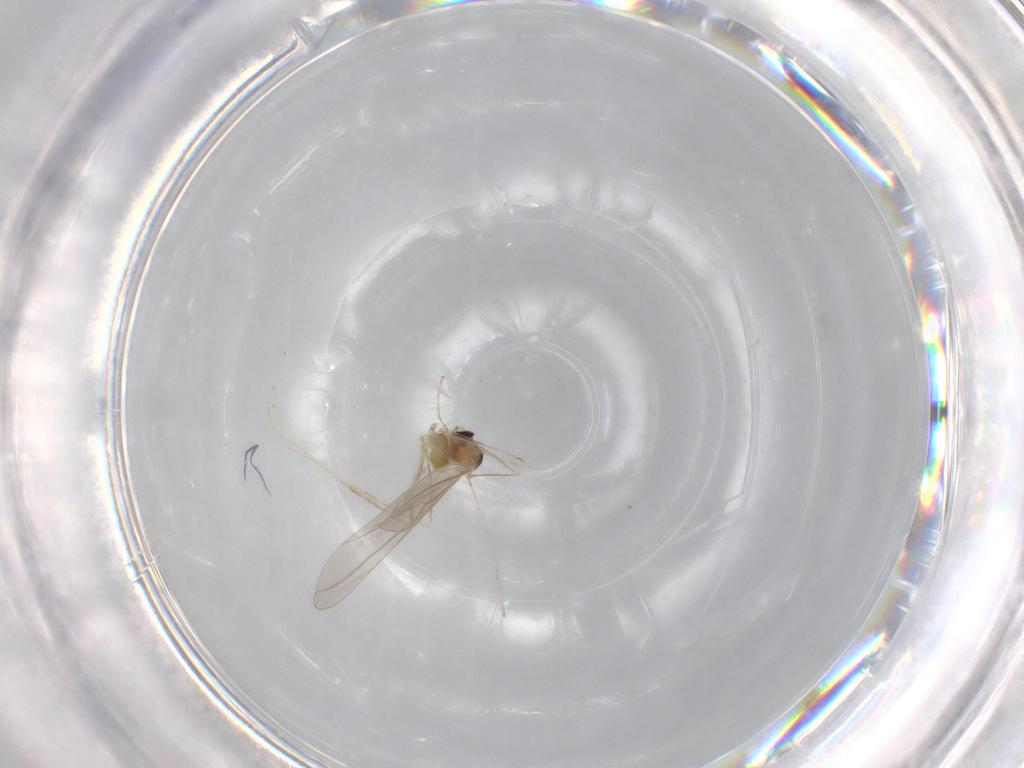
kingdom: Animalia
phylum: Arthropoda
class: Insecta
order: Diptera
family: Cecidomyiidae
